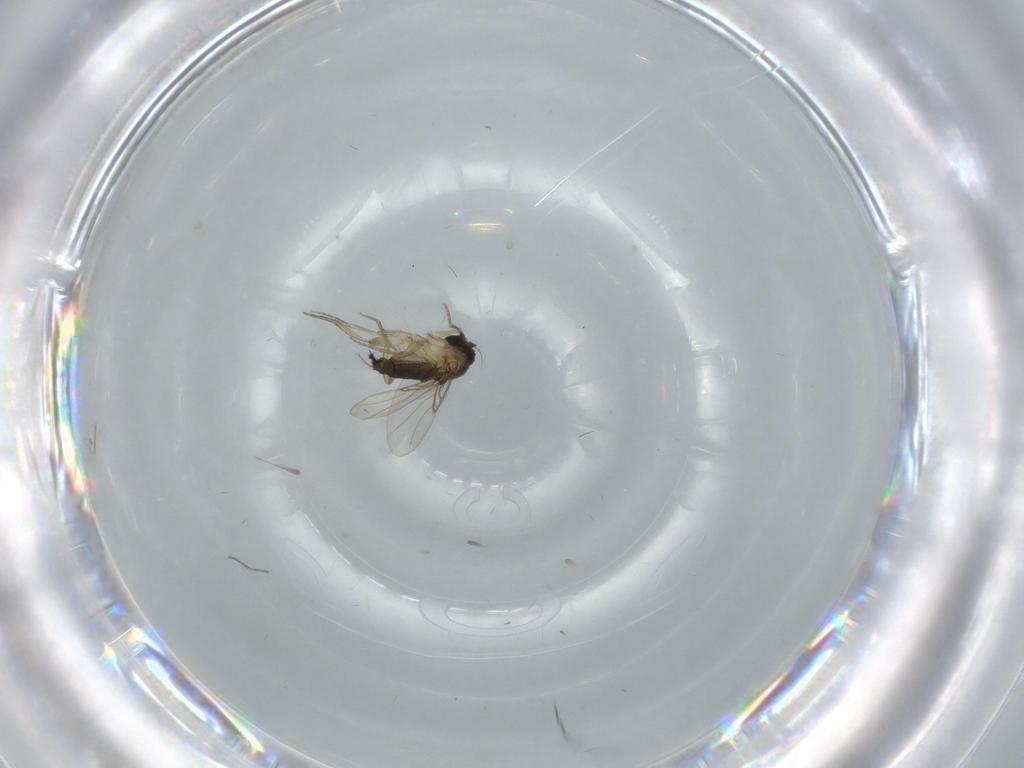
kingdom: Animalia
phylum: Arthropoda
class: Insecta
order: Diptera
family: Phoridae
